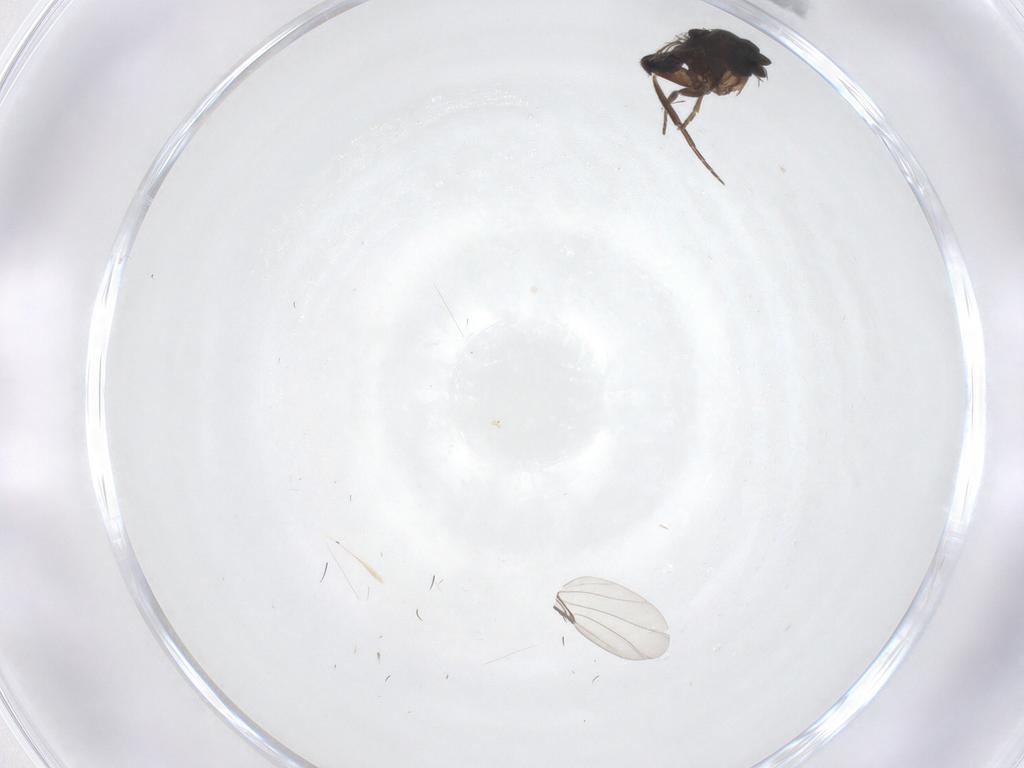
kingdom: Animalia
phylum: Arthropoda
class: Insecta
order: Diptera
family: Phoridae
